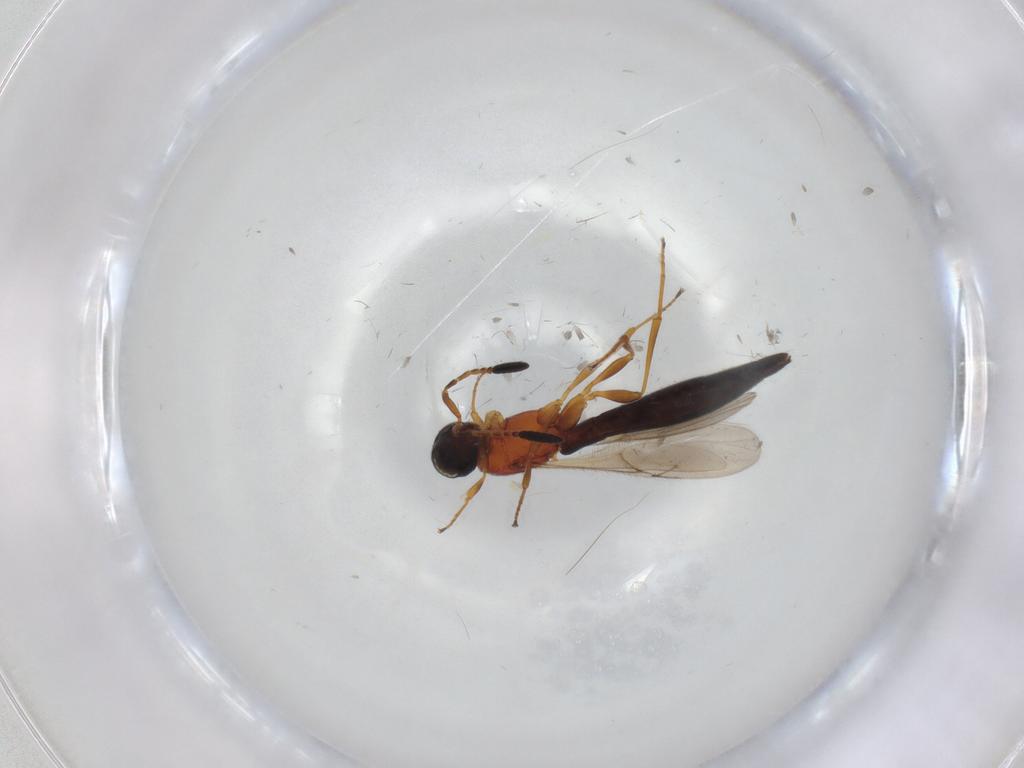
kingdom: Animalia
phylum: Arthropoda
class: Insecta
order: Hymenoptera
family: Scelionidae
